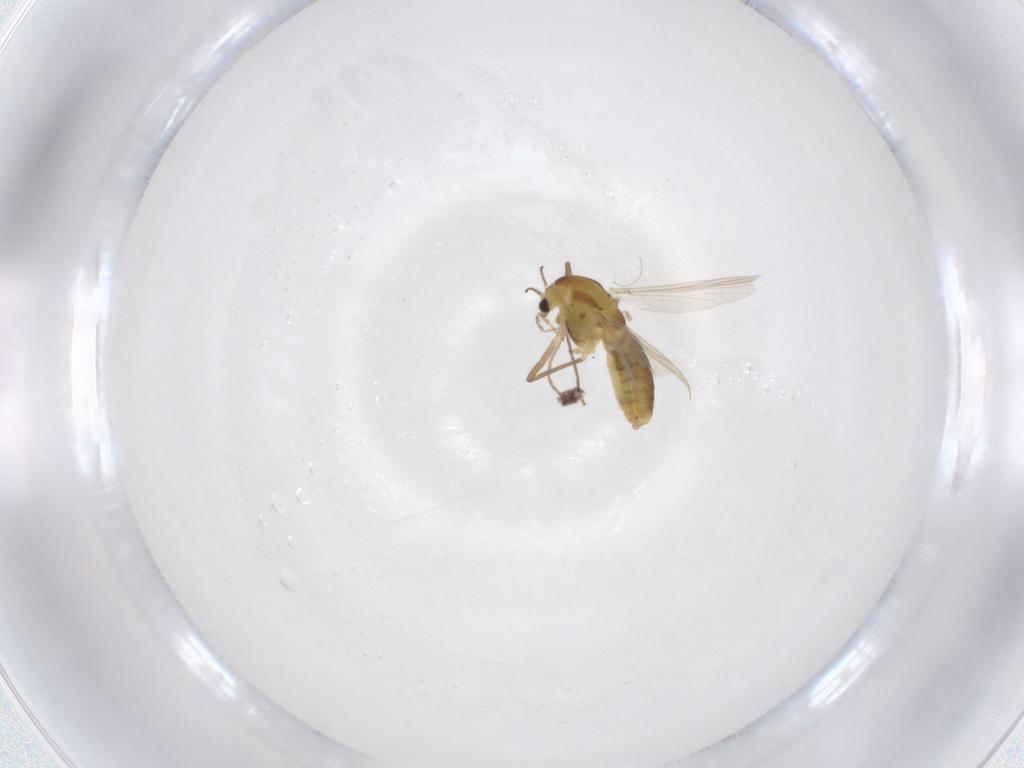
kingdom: Animalia
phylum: Arthropoda
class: Insecta
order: Diptera
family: Chironomidae
